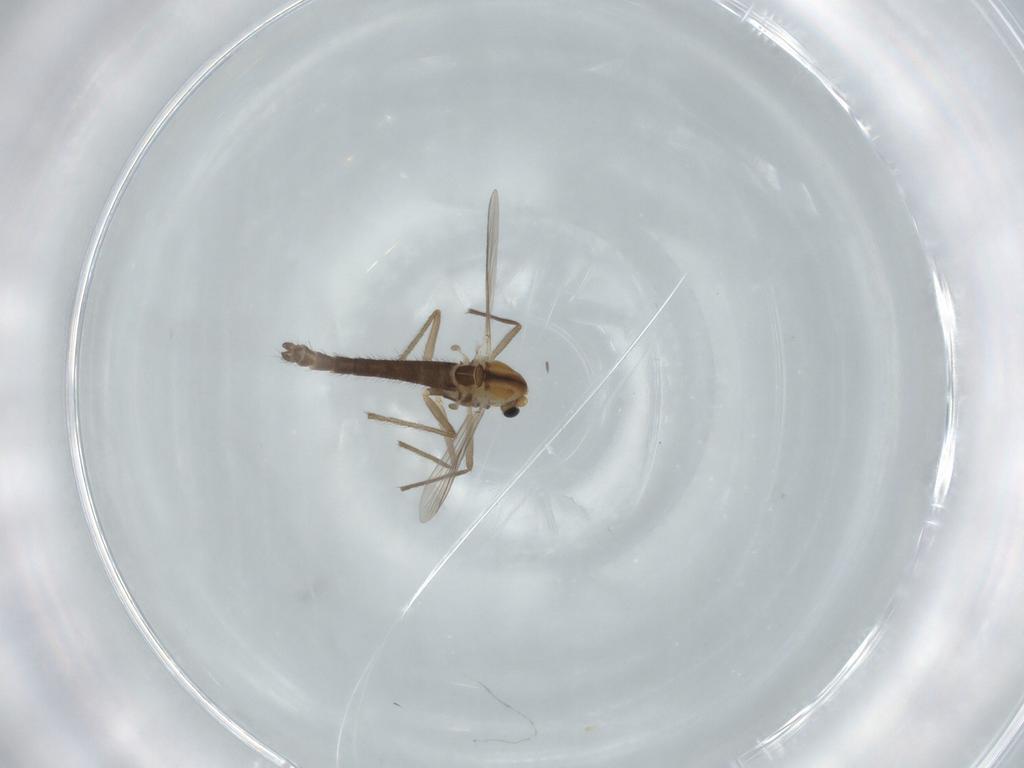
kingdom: Animalia
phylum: Arthropoda
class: Insecta
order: Diptera
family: Chironomidae
